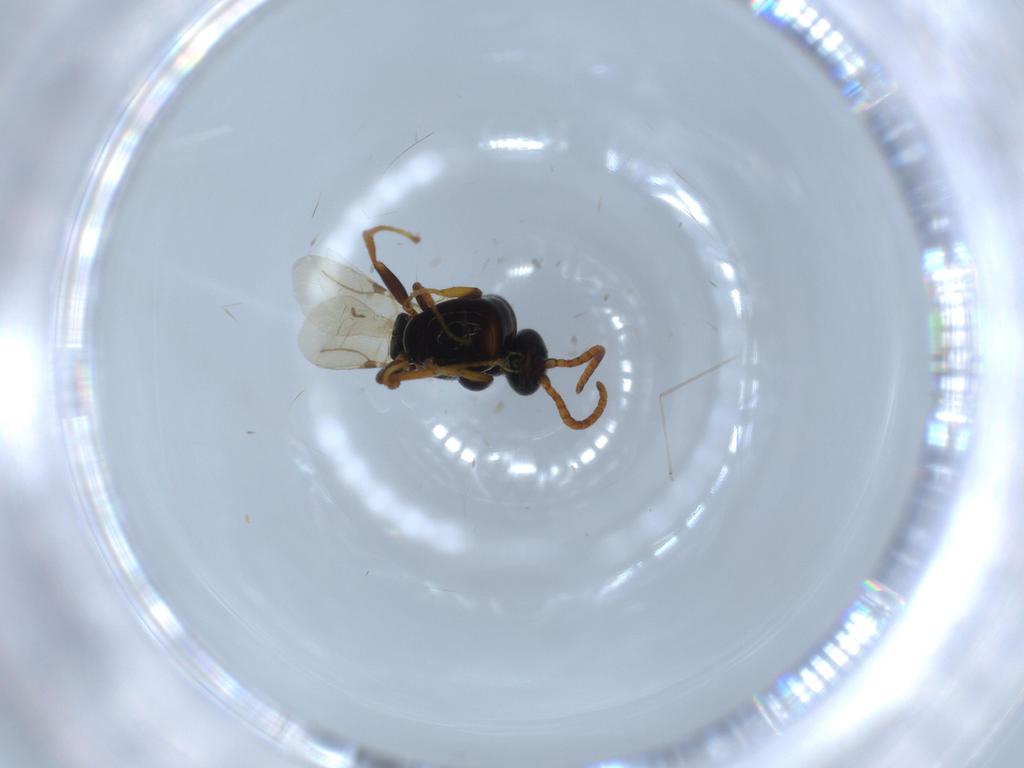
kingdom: Animalia
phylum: Arthropoda
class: Insecta
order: Hymenoptera
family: Bethylidae
